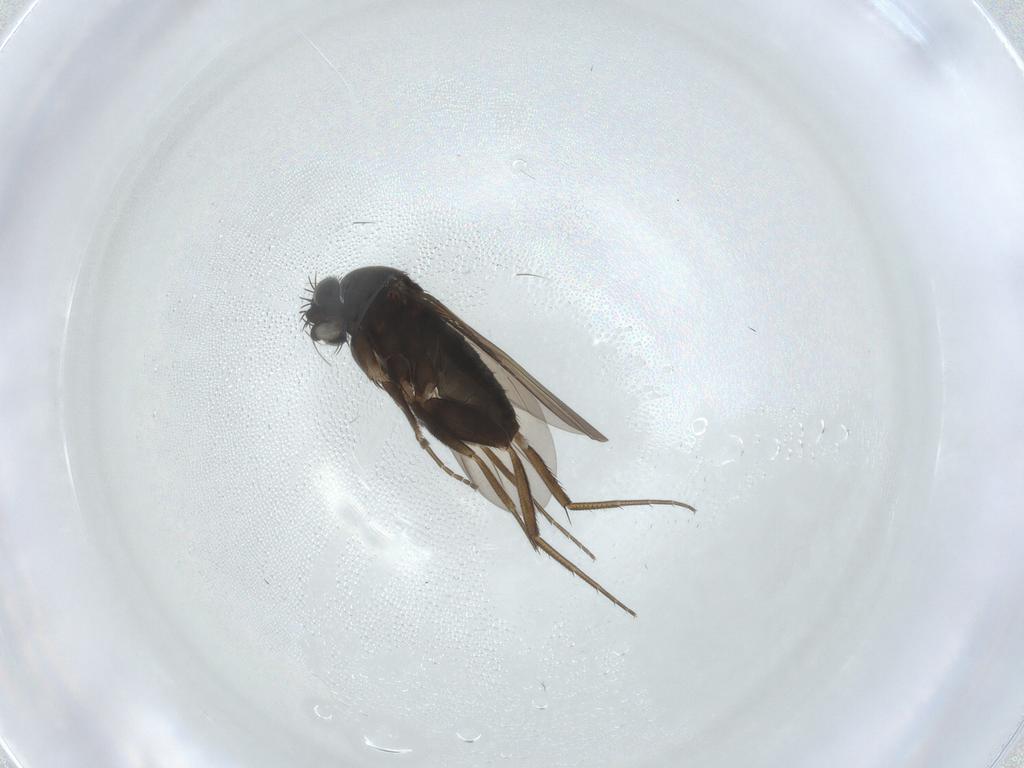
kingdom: Animalia
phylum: Arthropoda
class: Insecta
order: Diptera
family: Phoridae
